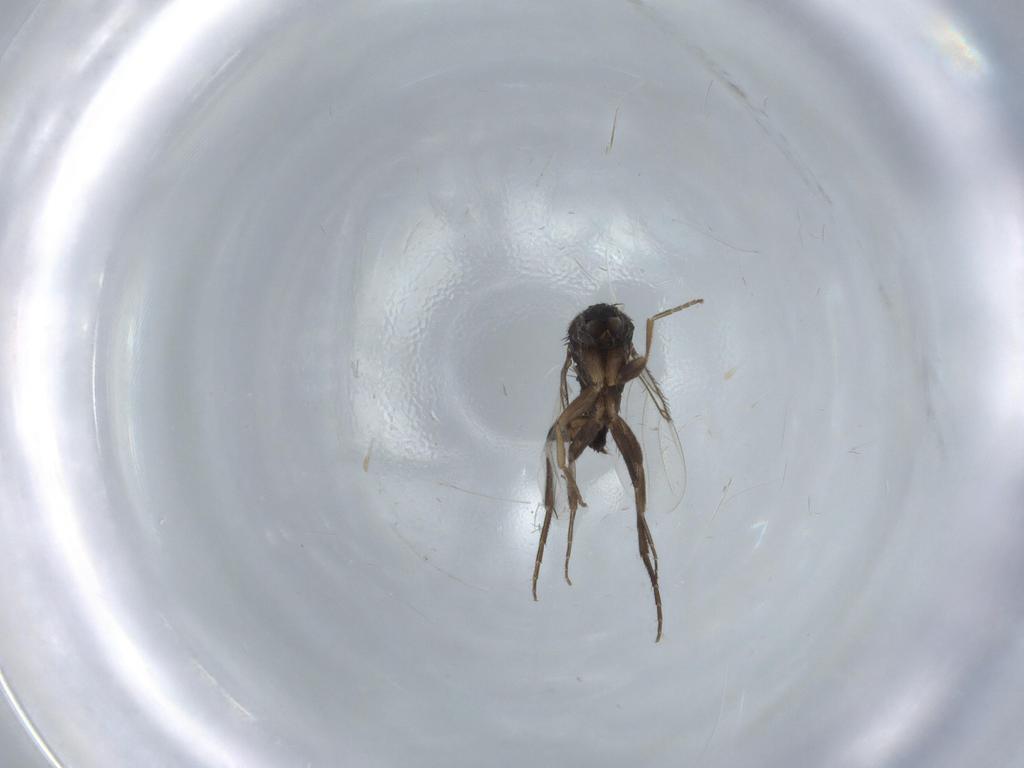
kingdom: Animalia
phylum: Arthropoda
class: Insecta
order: Diptera
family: Phoridae
